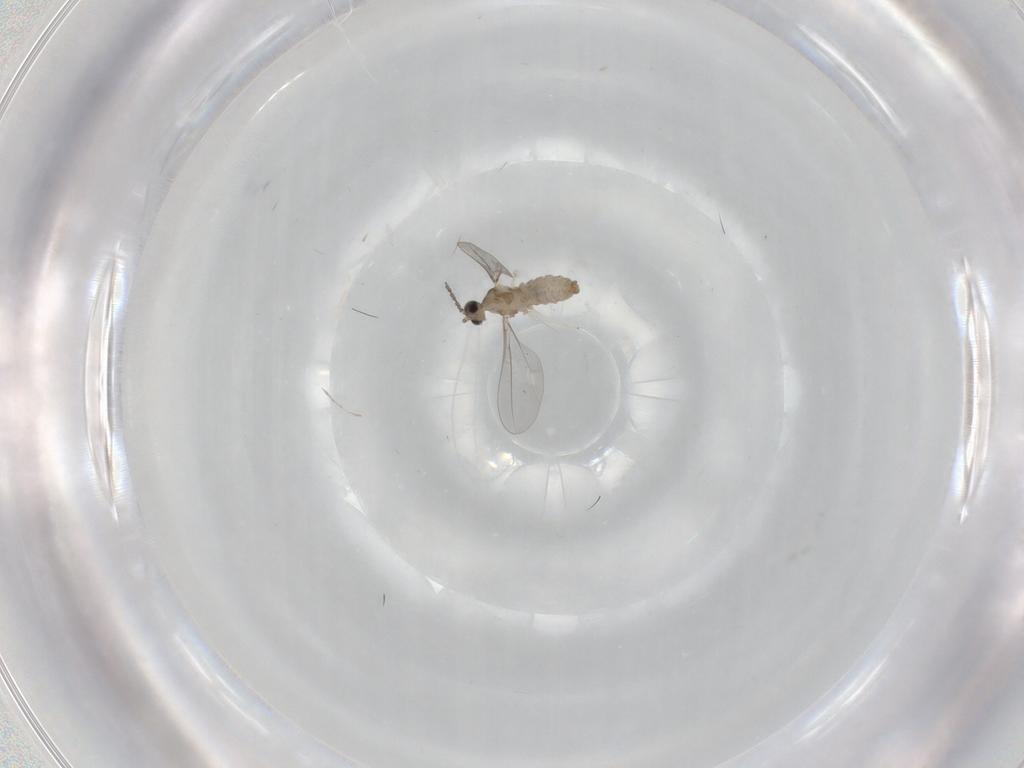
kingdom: Animalia
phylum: Arthropoda
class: Insecta
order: Diptera
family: Cecidomyiidae
